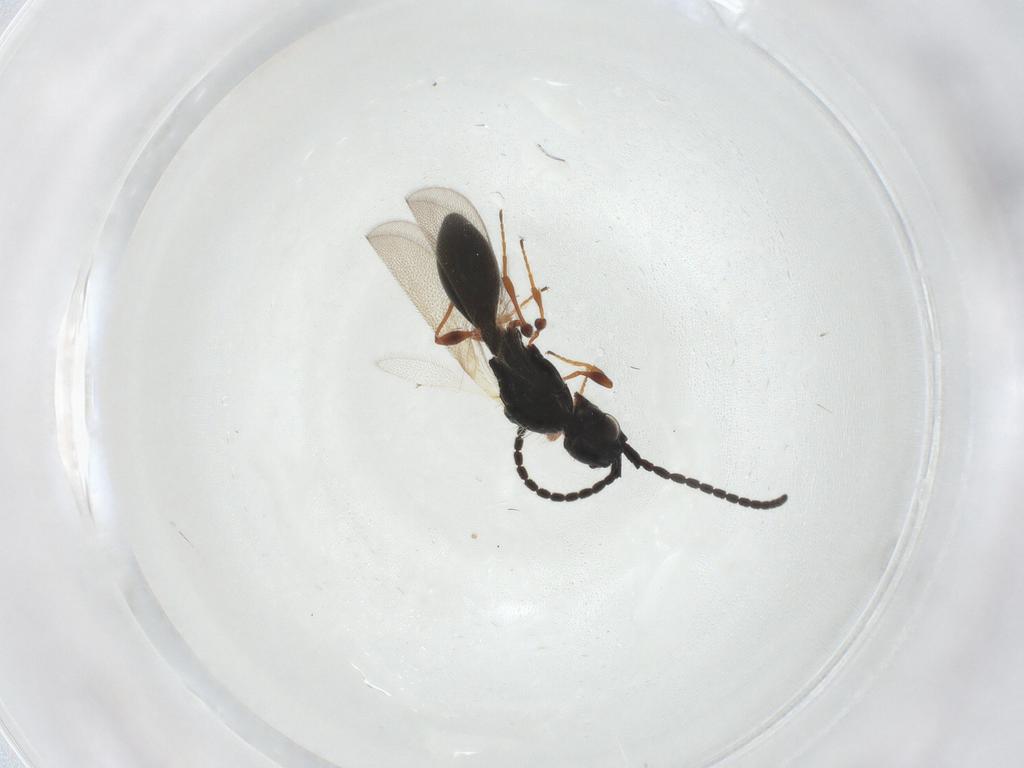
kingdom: Animalia
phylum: Arthropoda
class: Insecta
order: Hymenoptera
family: Diapriidae
